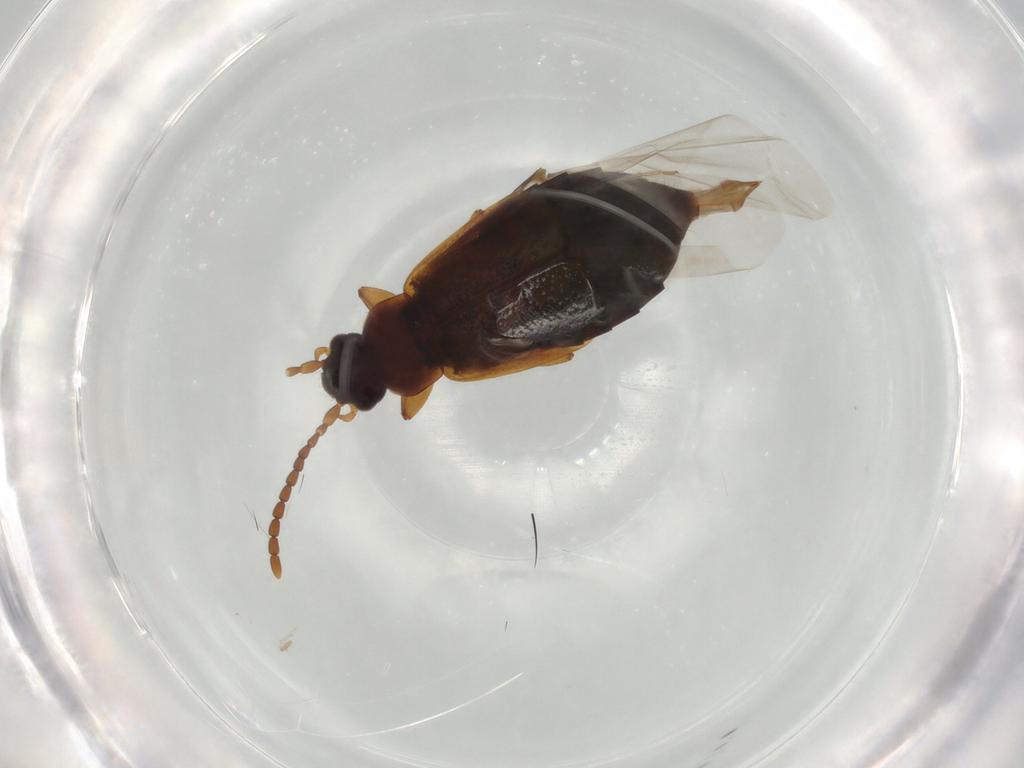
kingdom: Animalia
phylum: Arthropoda
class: Insecta
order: Coleoptera
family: Staphylinidae
